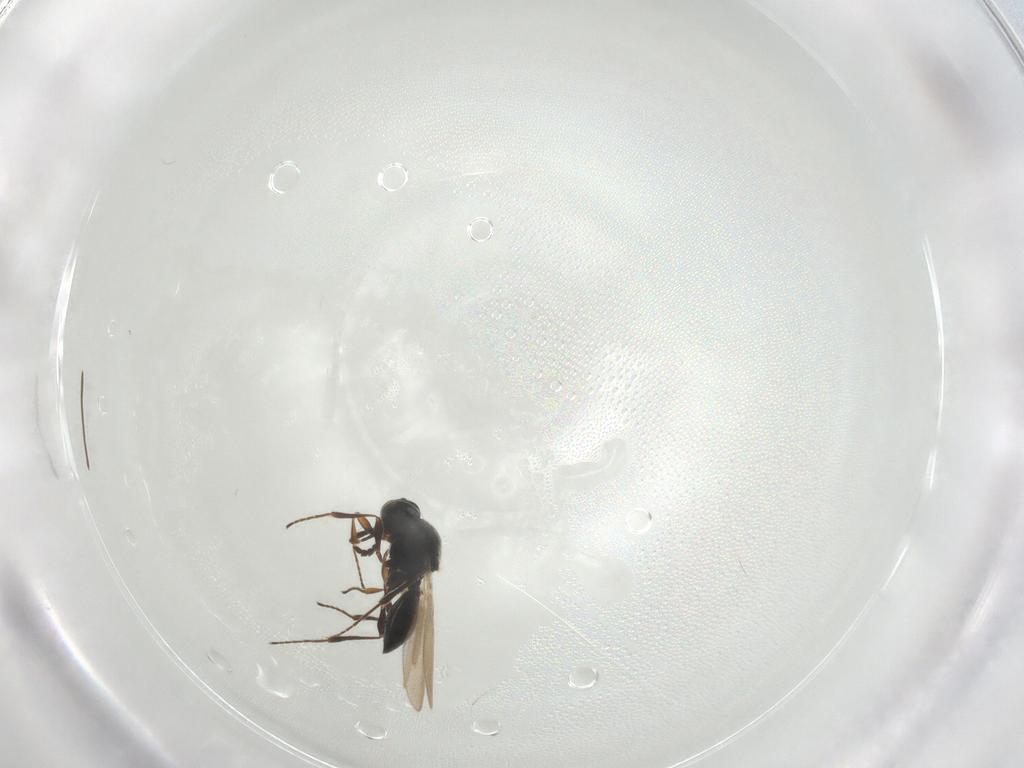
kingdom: Animalia
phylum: Arthropoda
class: Insecta
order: Hymenoptera
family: Platygastridae
